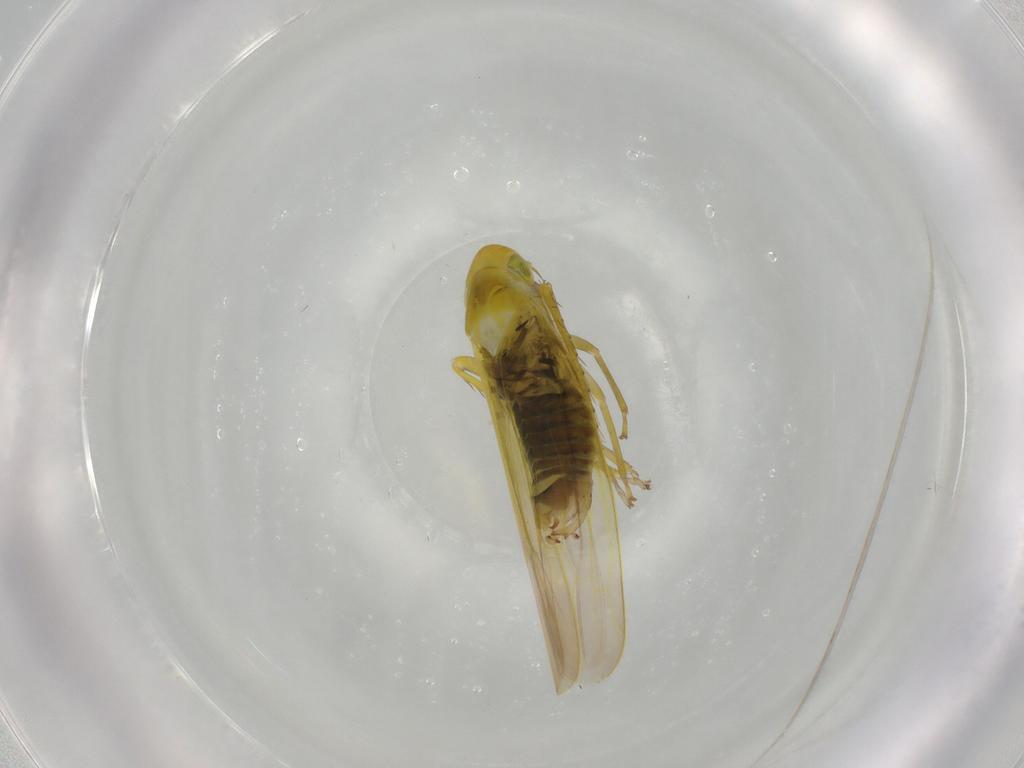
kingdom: Animalia
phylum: Arthropoda
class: Insecta
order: Hemiptera
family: Cicadellidae
